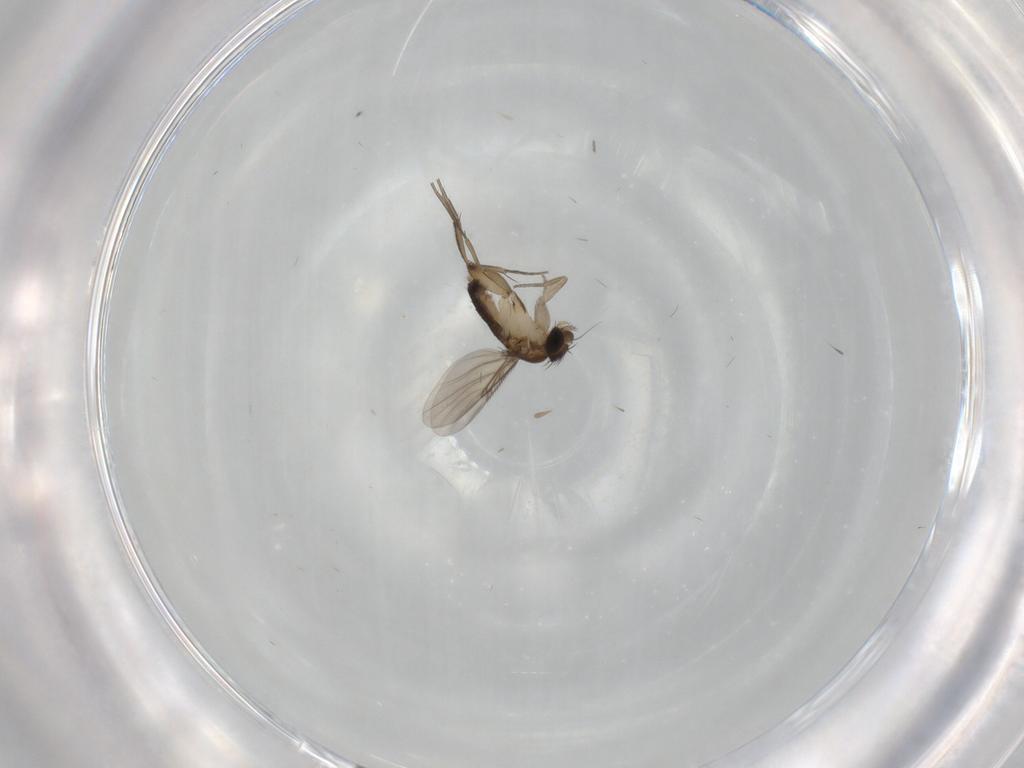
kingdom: Animalia
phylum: Arthropoda
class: Insecta
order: Diptera
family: Phoridae
